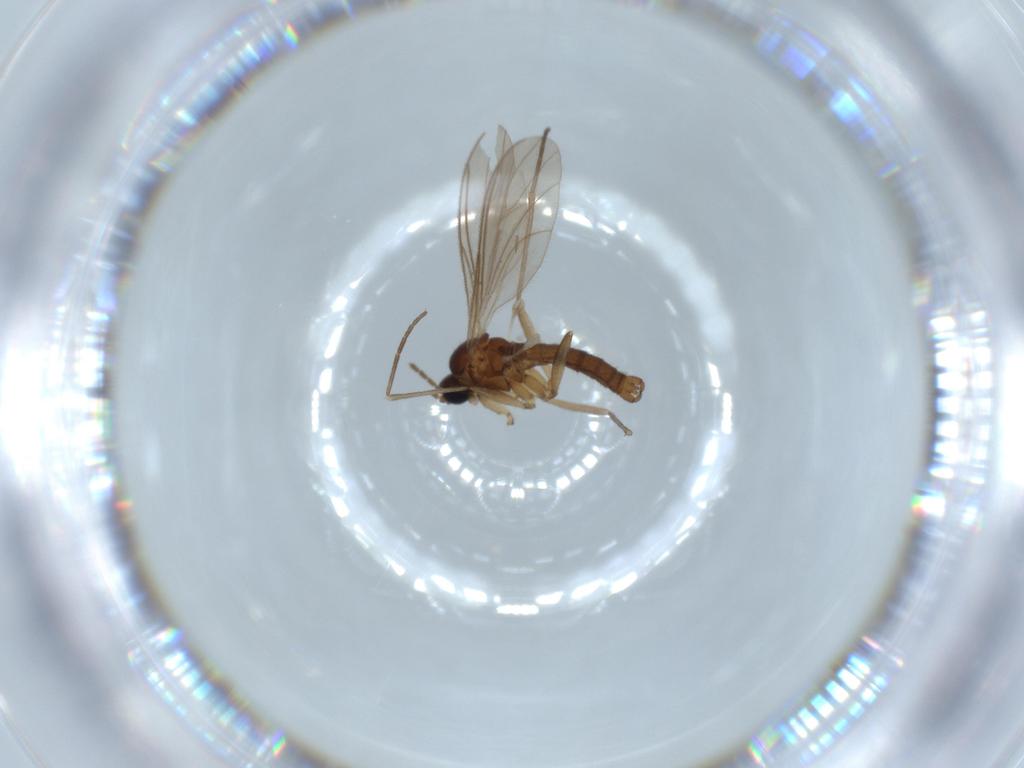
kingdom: Animalia
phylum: Arthropoda
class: Insecta
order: Diptera
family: Sciaridae
